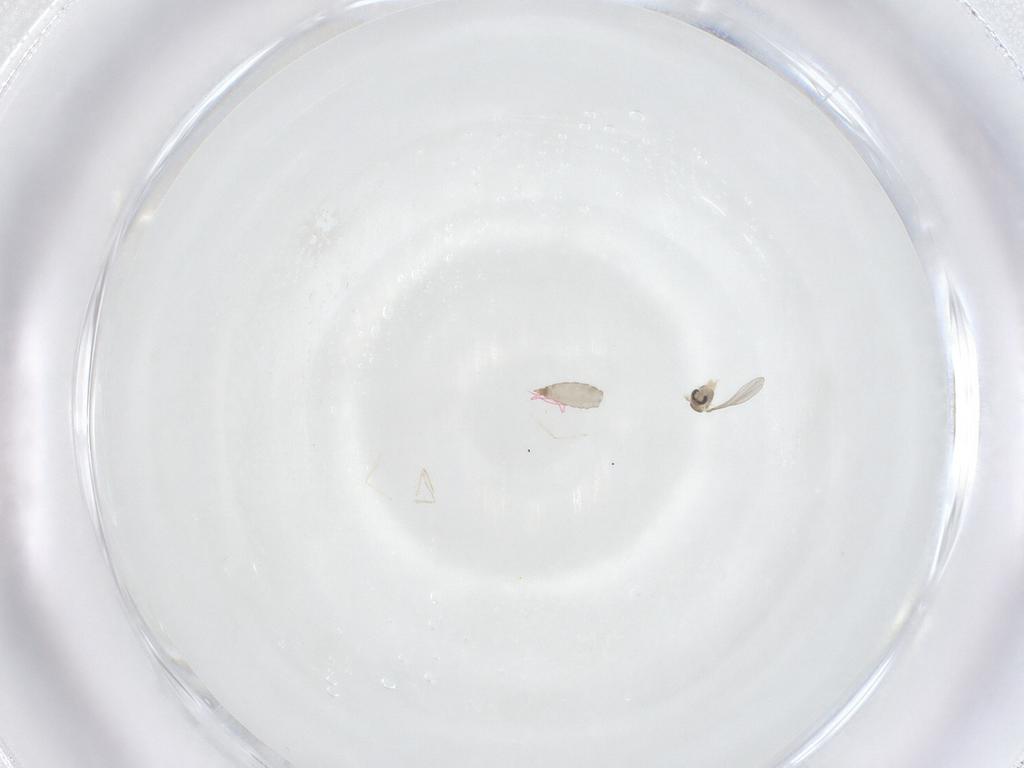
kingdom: Animalia
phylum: Arthropoda
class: Insecta
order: Diptera
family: Cecidomyiidae
